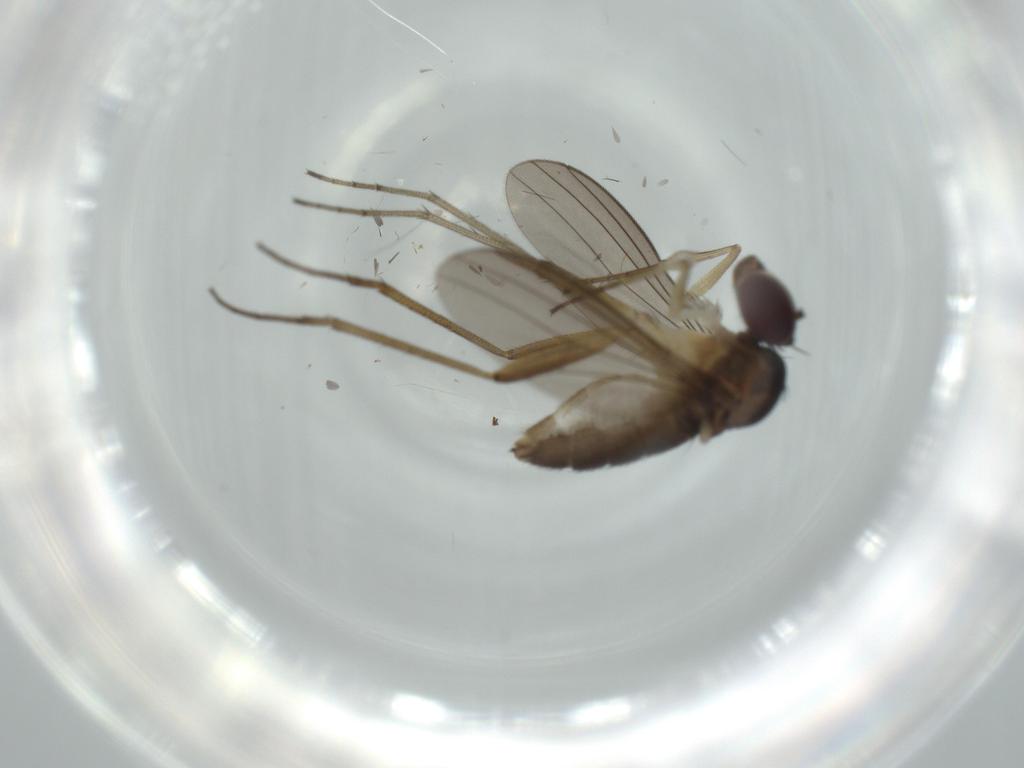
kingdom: Animalia
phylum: Arthropoda
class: Insecta
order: Diptera
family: Dolichopodidae
